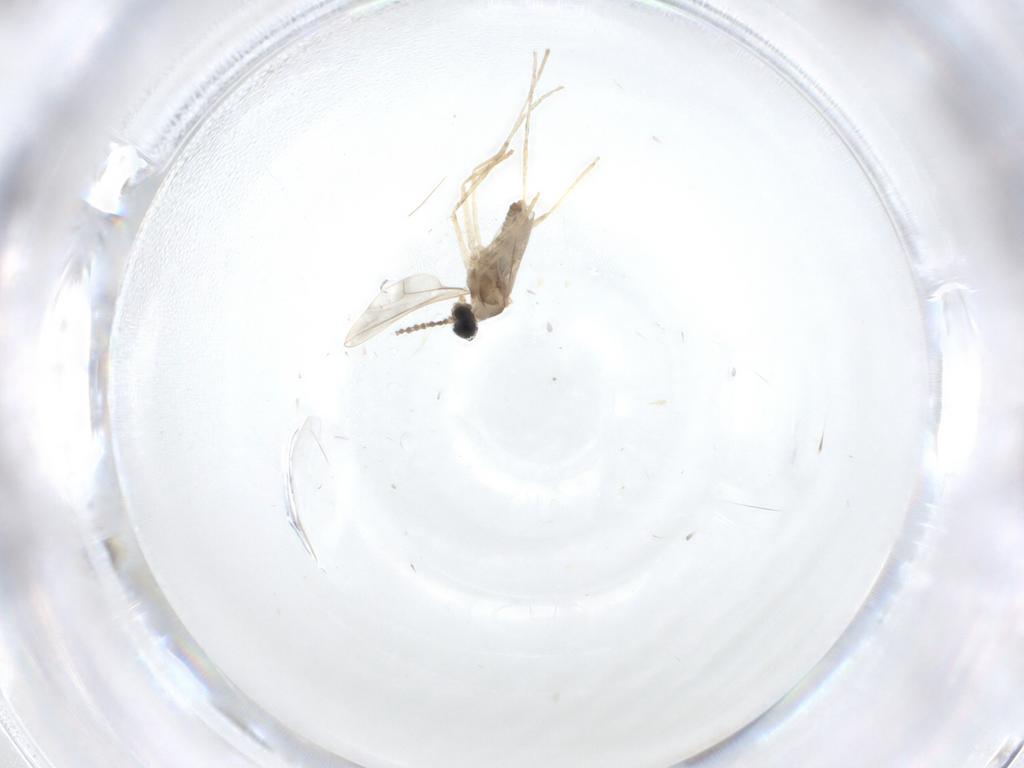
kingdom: Animalia
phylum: Arthropoda
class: Insecta
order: Diptera
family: Cecidomyiidae
